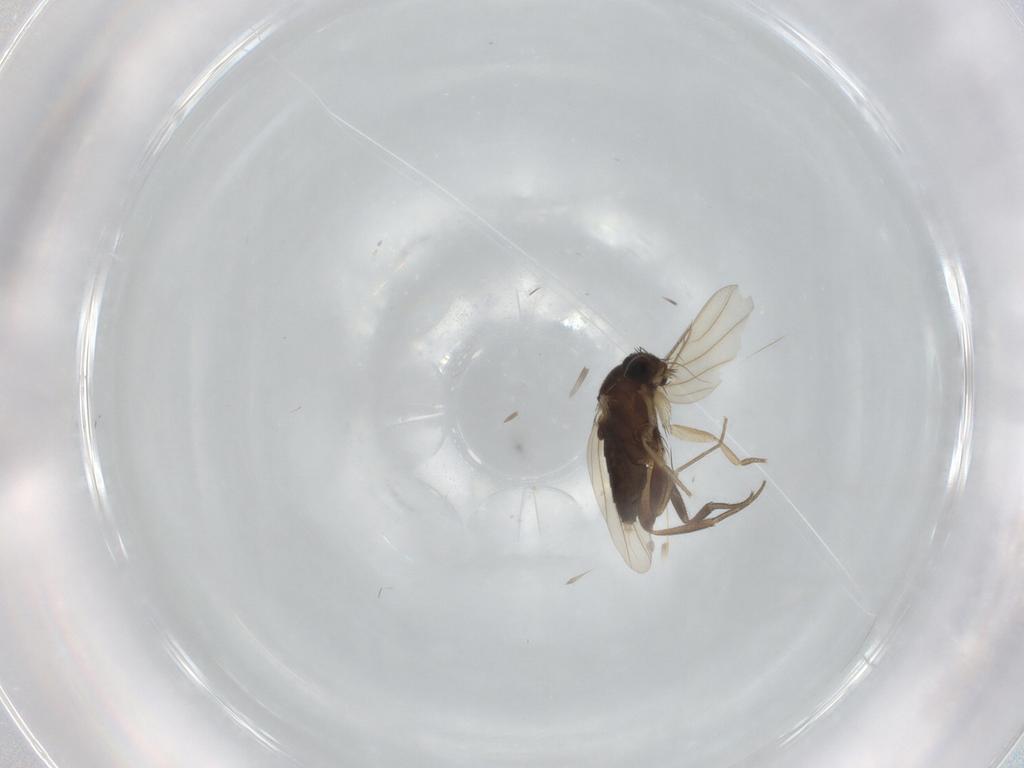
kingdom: Animalia
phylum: Arthropoda
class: Insecta
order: Diptera
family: Phoridae
